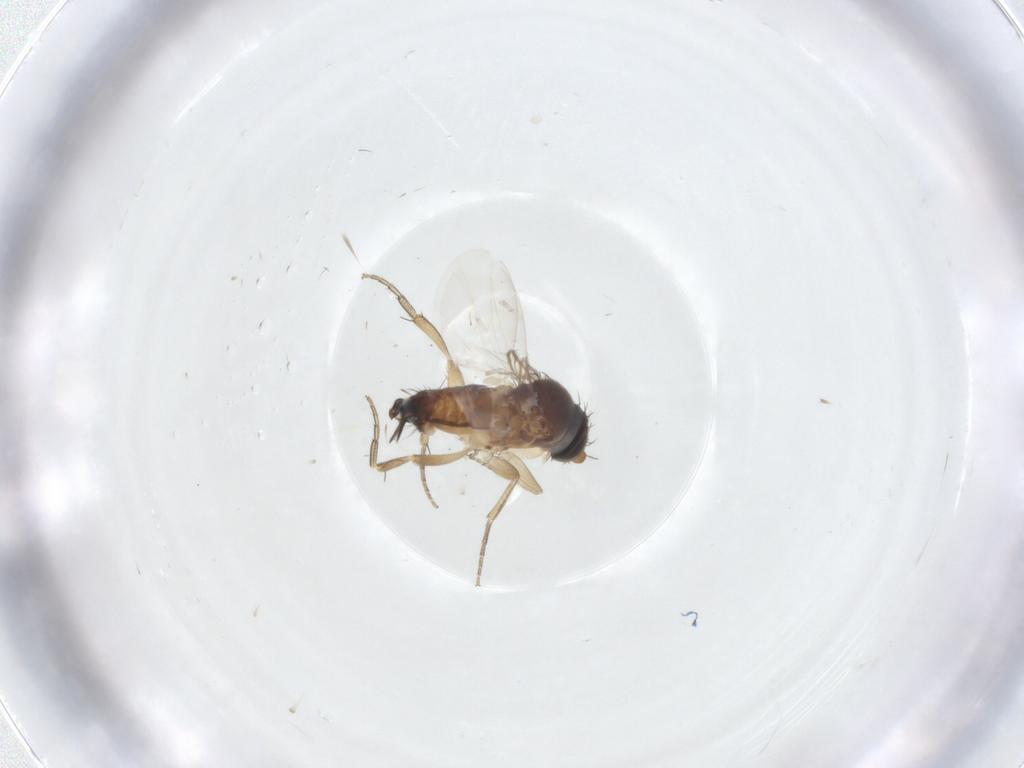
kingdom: Animalia
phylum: Arthropoda
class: Insecta
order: Diptera
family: Phoridae
